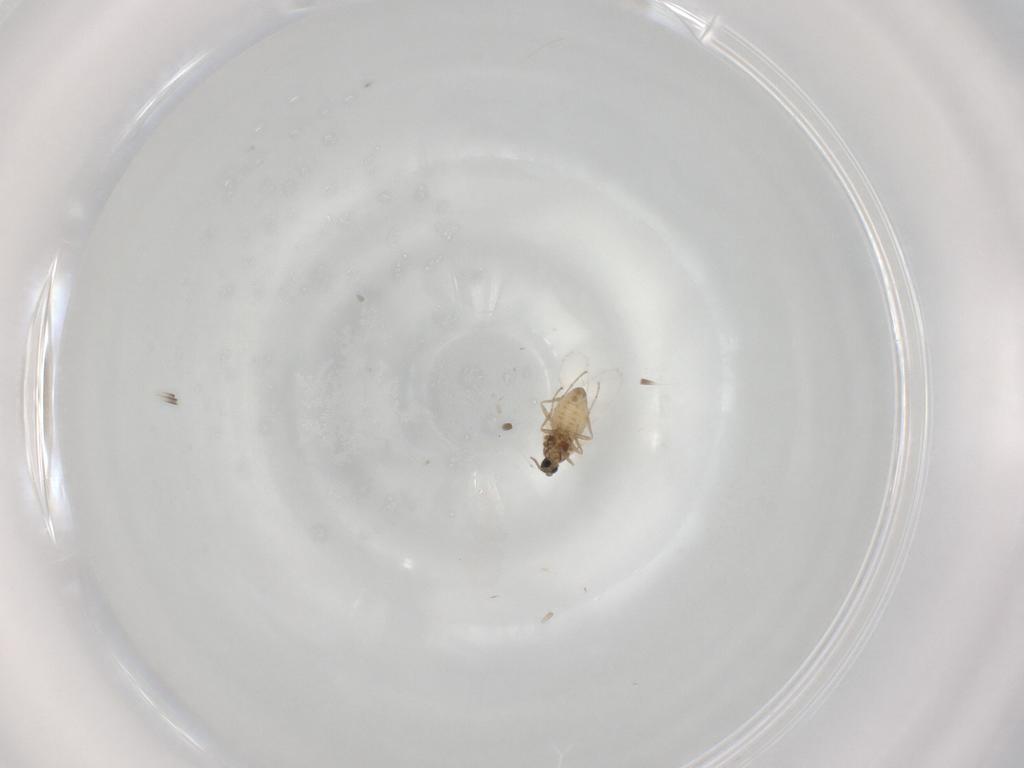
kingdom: Animalia
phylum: Arthropoda
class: Insecta
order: Diptera
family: Cecidomyiidae
